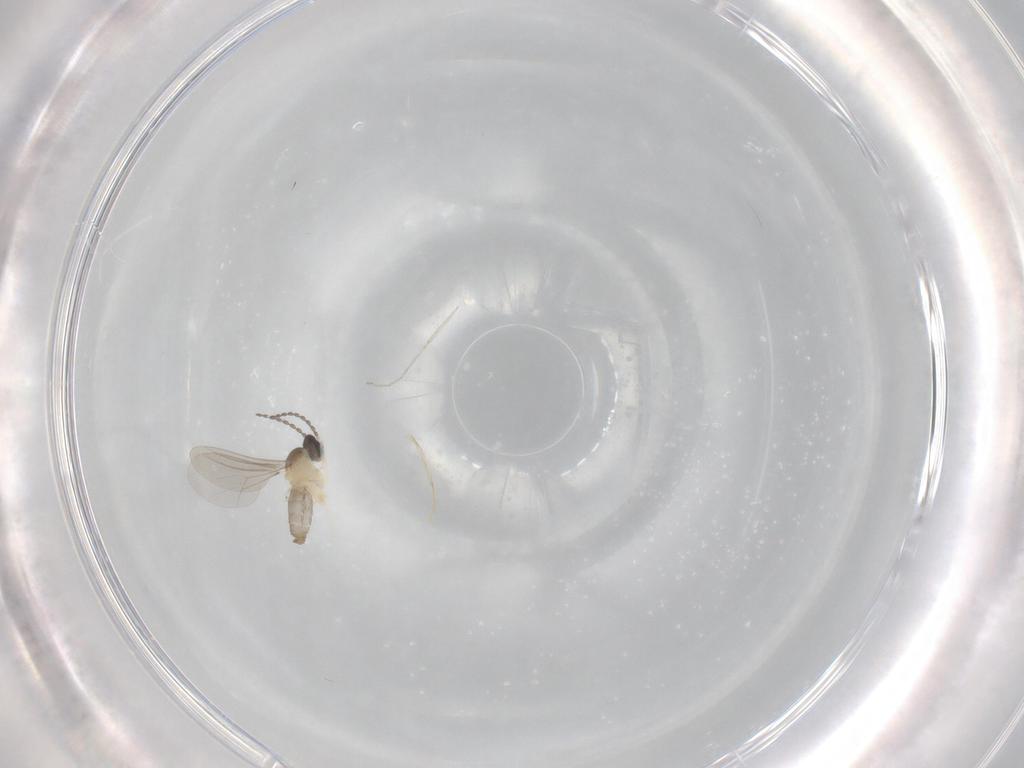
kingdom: Animalia
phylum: Arthropoda
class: Insecta
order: Diptera
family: Cecidomyiidae
